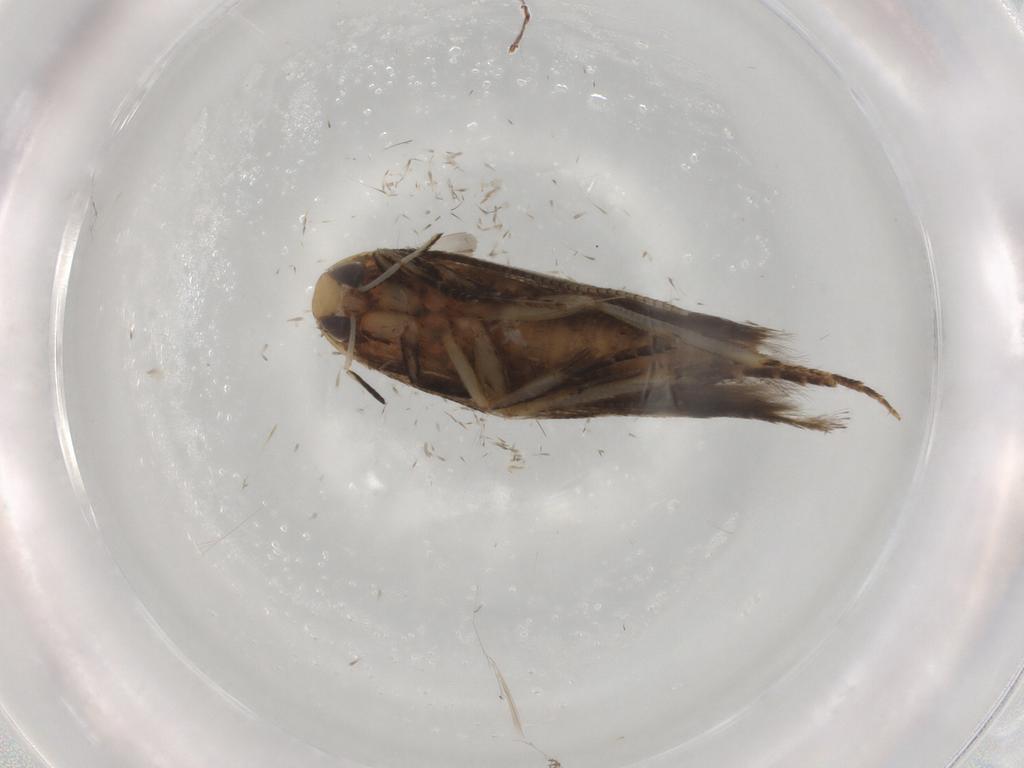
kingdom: Animalia
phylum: Arthropoda
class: Insecta
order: Lepidoptera
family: Cosmopterigidae
